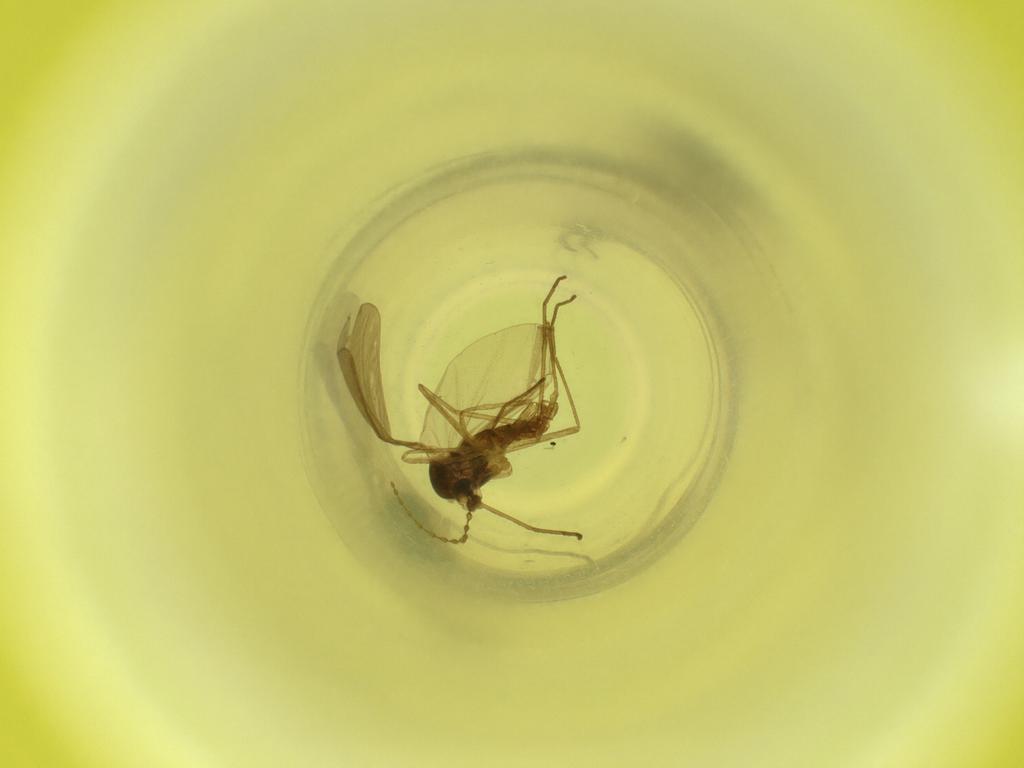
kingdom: Animalia
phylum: Arthropoda
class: Insecta
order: Diptera
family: Cecidomyiidae
